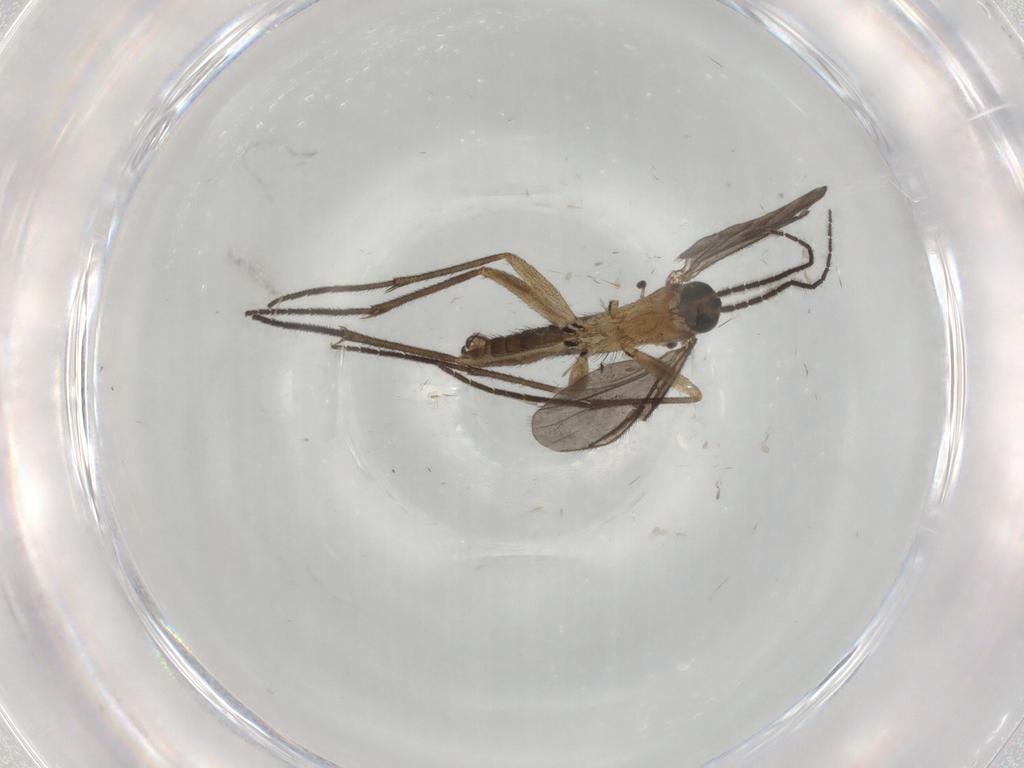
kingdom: Animalia
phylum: Arthropoda
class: Insecta
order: Diptera
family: Sciaridae
